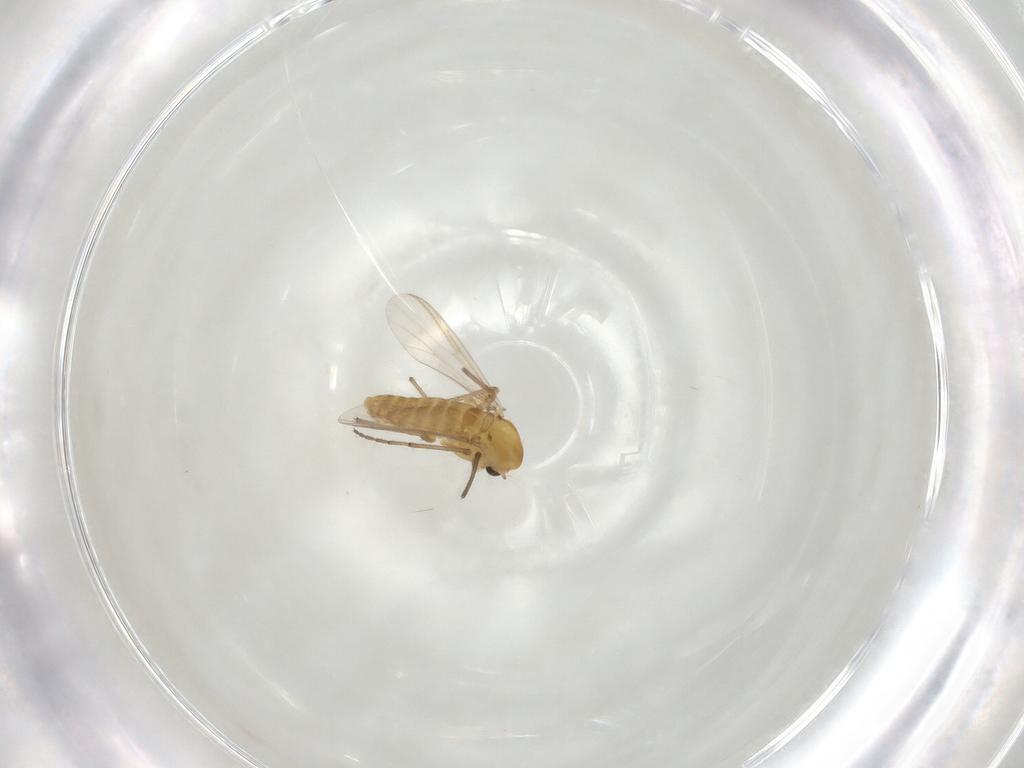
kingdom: Animalia
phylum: Arthropoda
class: Insecta
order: Diptera
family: Chironomidae
